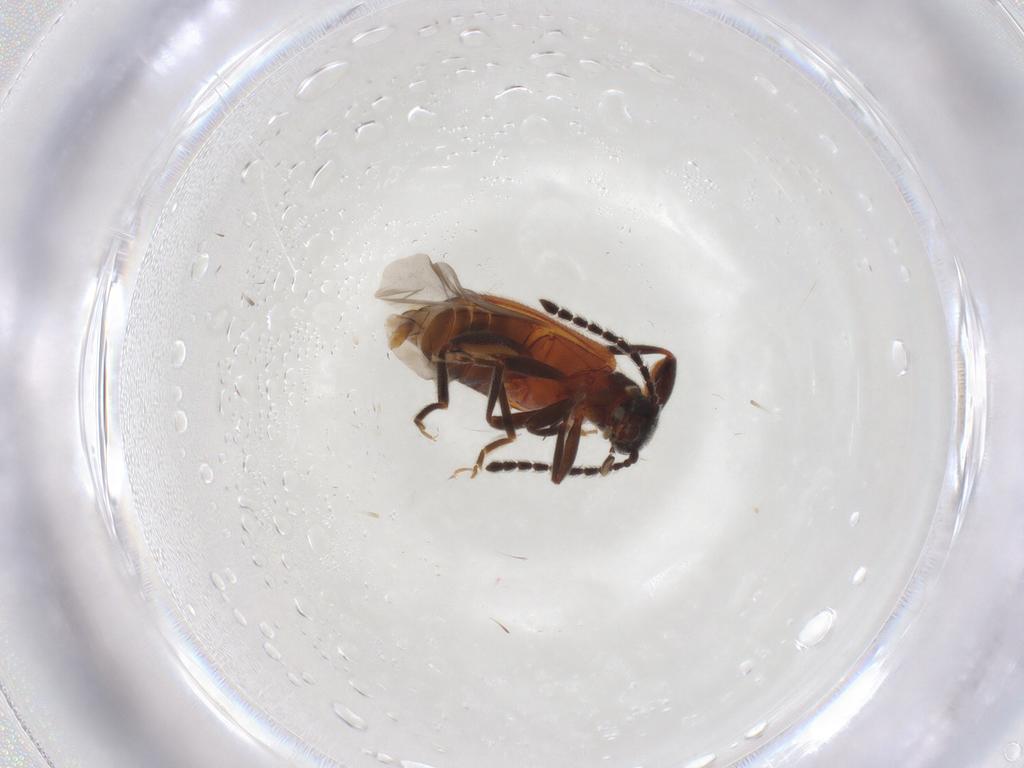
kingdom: Animalia
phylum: Arthropoda
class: Insecta
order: Coleoptera
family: Aderidae
